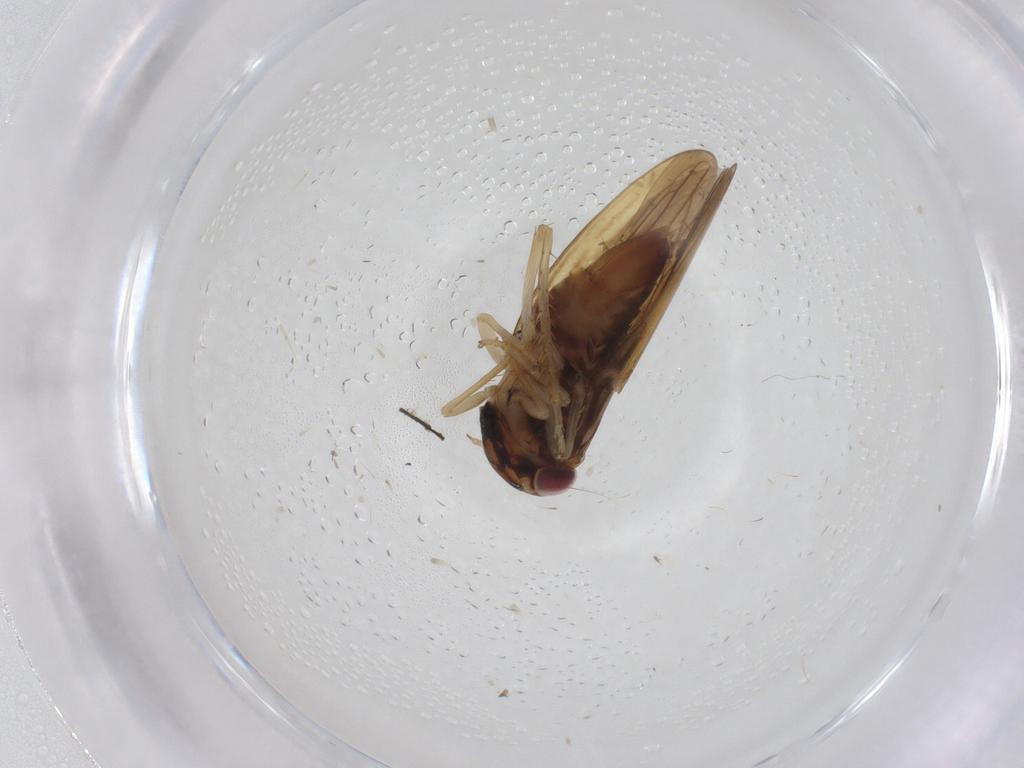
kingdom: Animalia
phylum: Arthropoda
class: Insecta
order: Hemiptera
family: Cicadellidae
